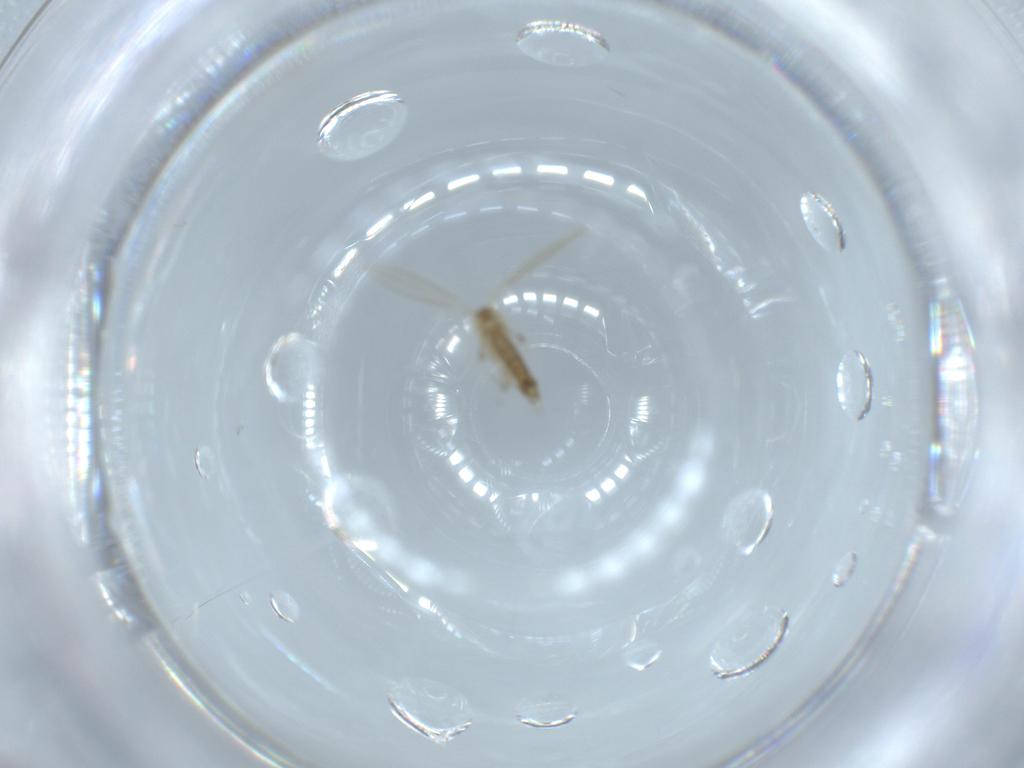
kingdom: Animalia
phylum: Arthropoda
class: Insecta
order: Diptera
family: Psychodidae
